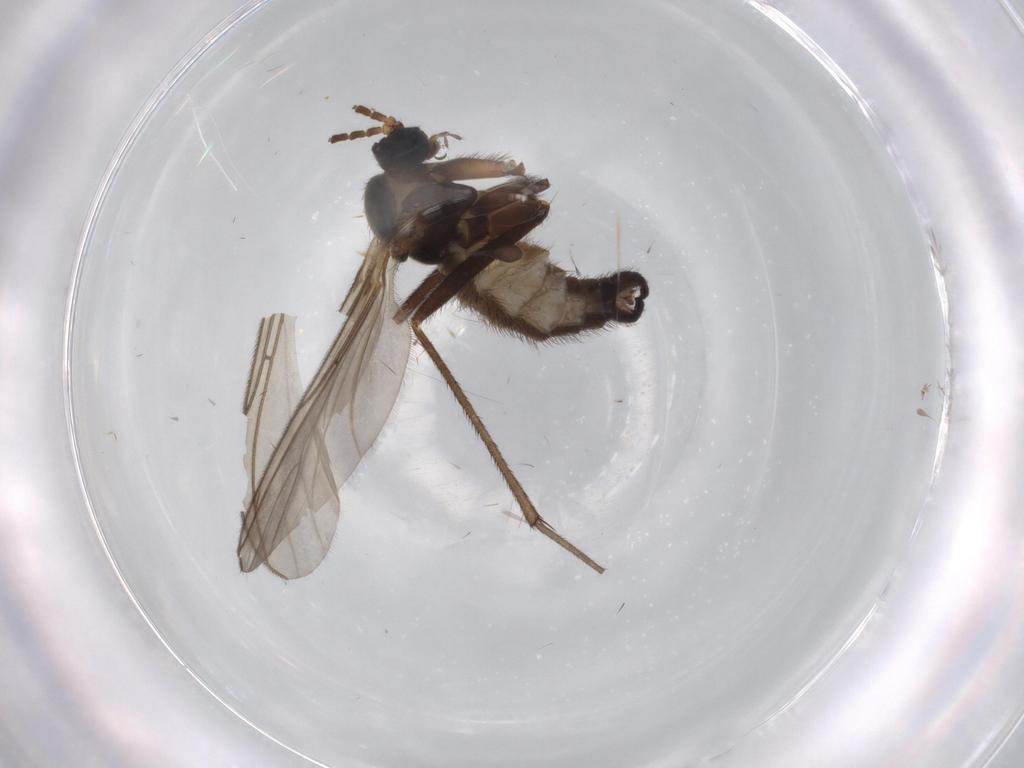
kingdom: Animalia
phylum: Arthropoda
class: Insecta
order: Diptera
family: Sciaridae
